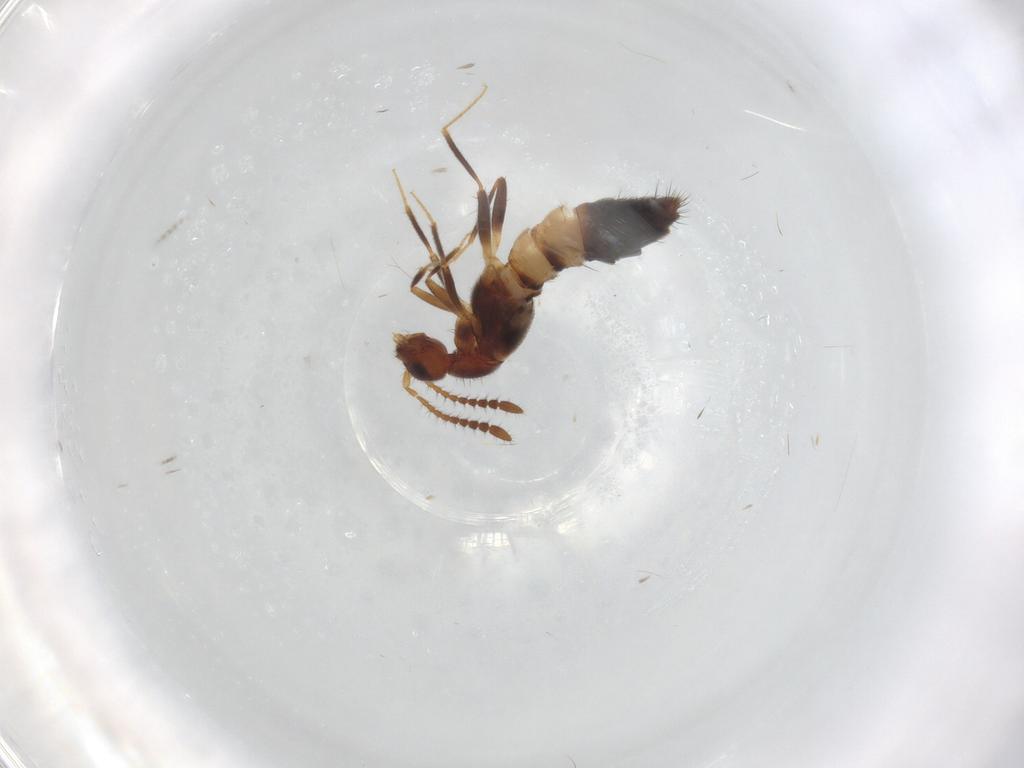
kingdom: Animalia
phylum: Arthropoda
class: Insecta
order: Coleoptera
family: Staphylinidae
